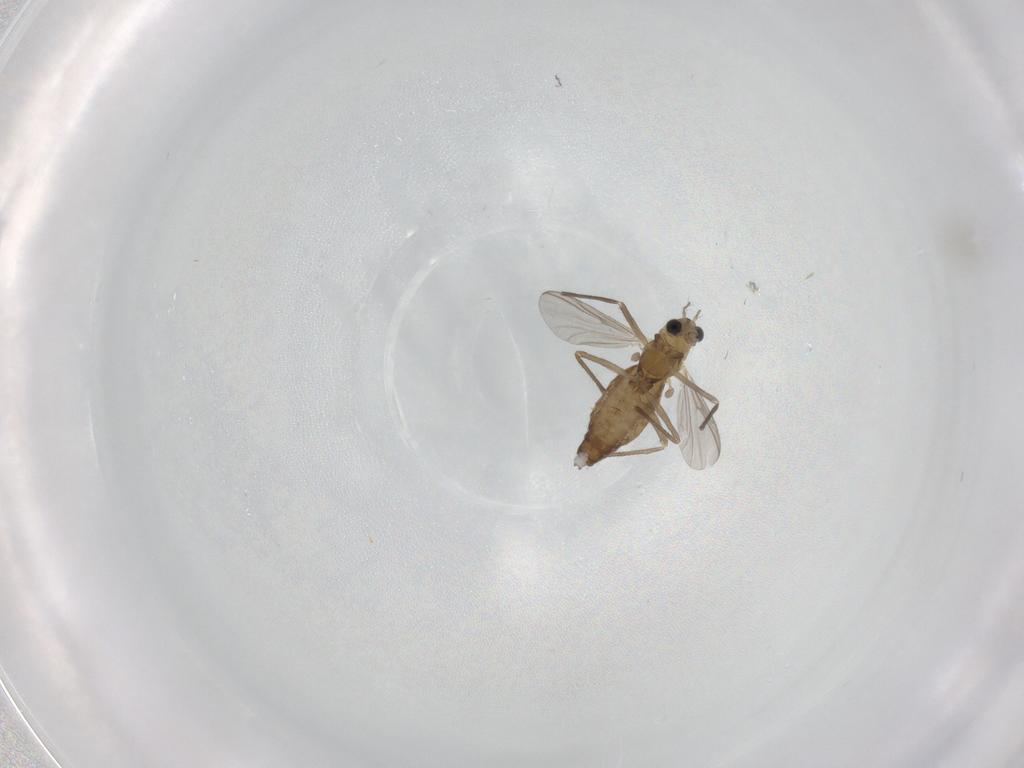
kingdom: Animalia
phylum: Arthropoda
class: Insecta
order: Diptera
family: Chironomidae
